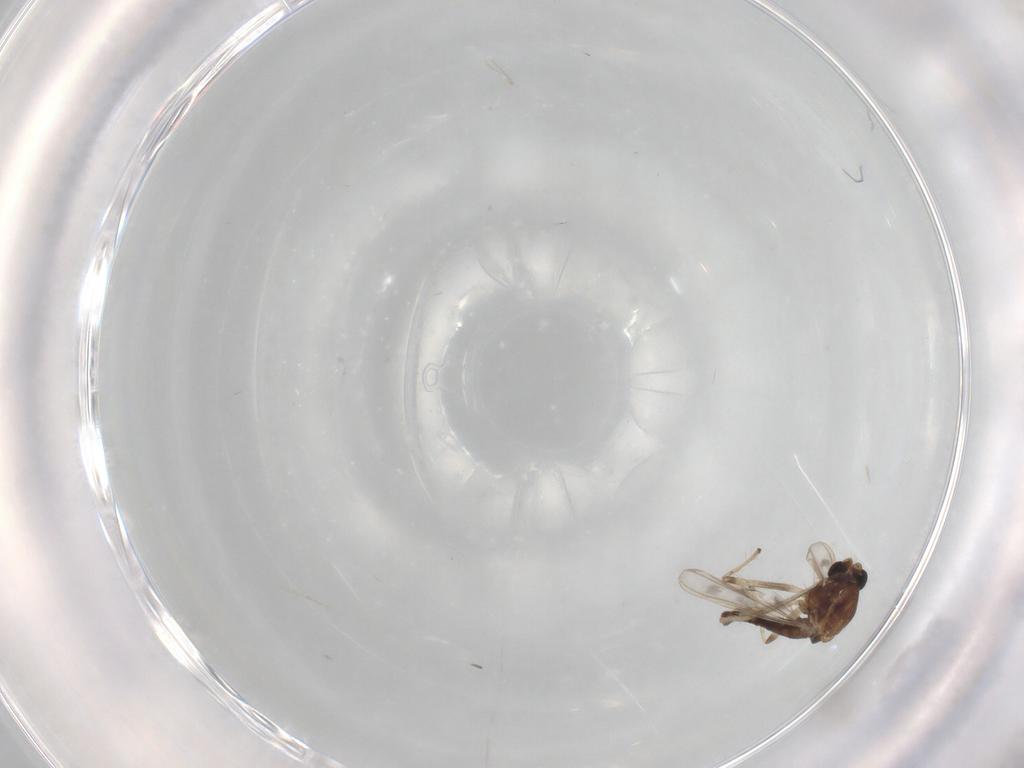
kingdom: Animalia
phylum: Arthropoda
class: Insecta
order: Diptera
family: Chironomidae
